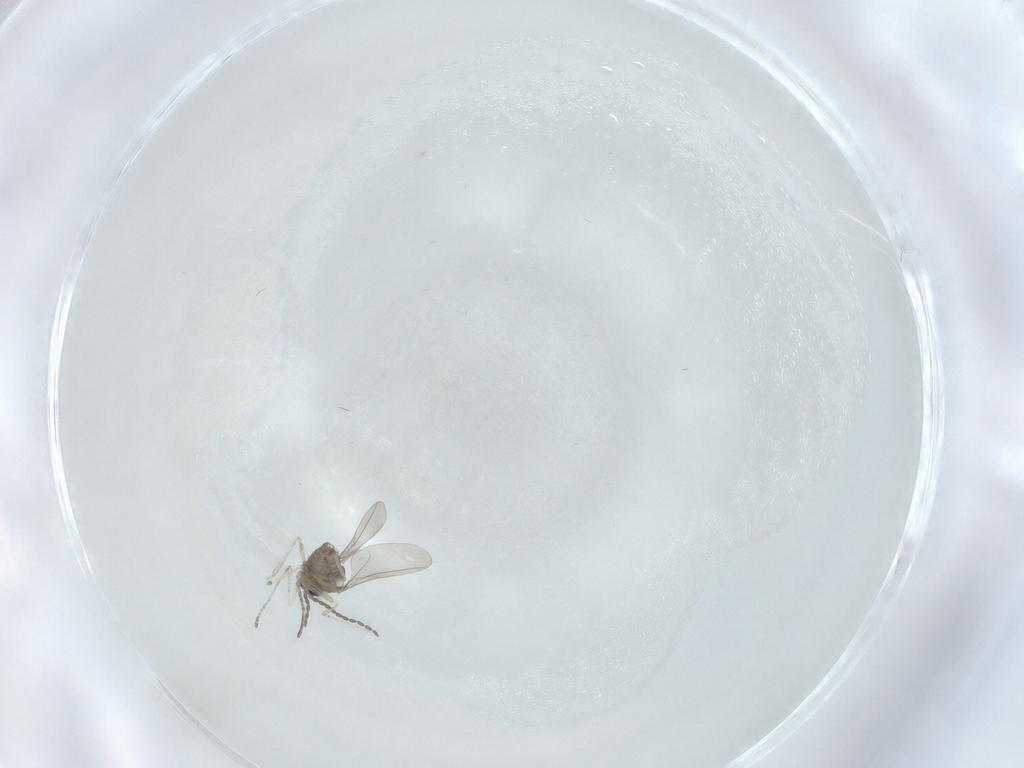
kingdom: Animalia
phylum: Arthropoda
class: Insecta
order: Diptera
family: Cecidomyiidae
